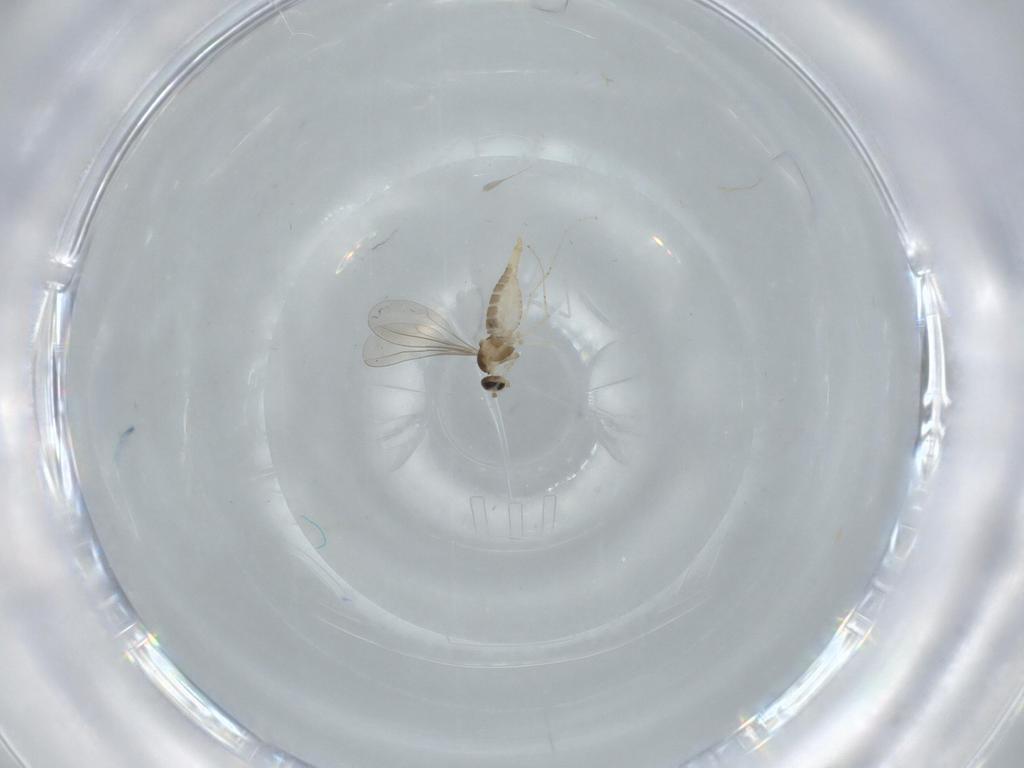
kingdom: Animalia
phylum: Arthropoda
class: Insecta
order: Diptera
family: Cecidomyiidae
